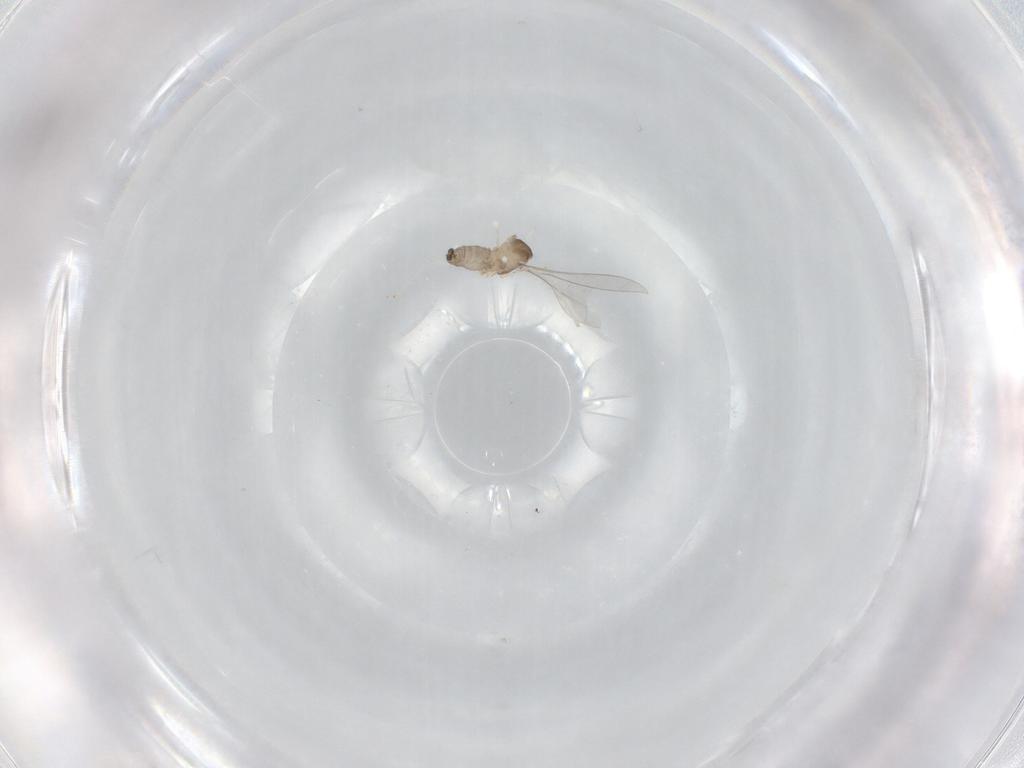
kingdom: Animalia
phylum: Arthropoda
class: Insecta
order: Diptera
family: Cecidomyiidae
